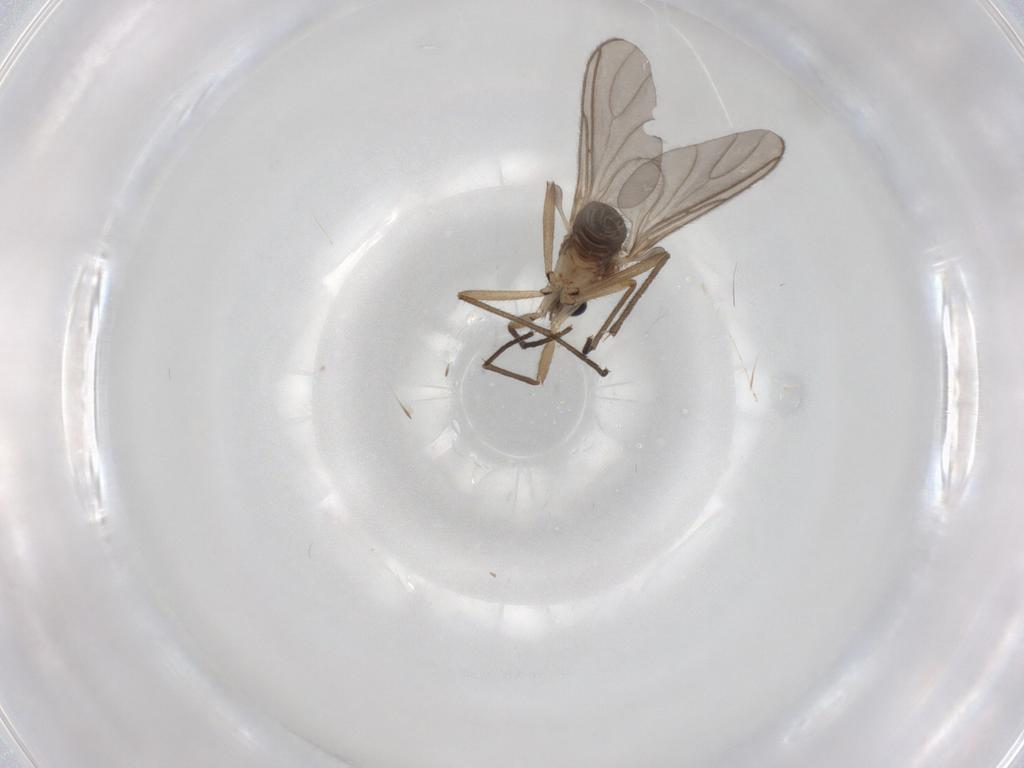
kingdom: Animalia
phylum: Arthropoda
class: Insecta
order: Diptera
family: Sciaridae
